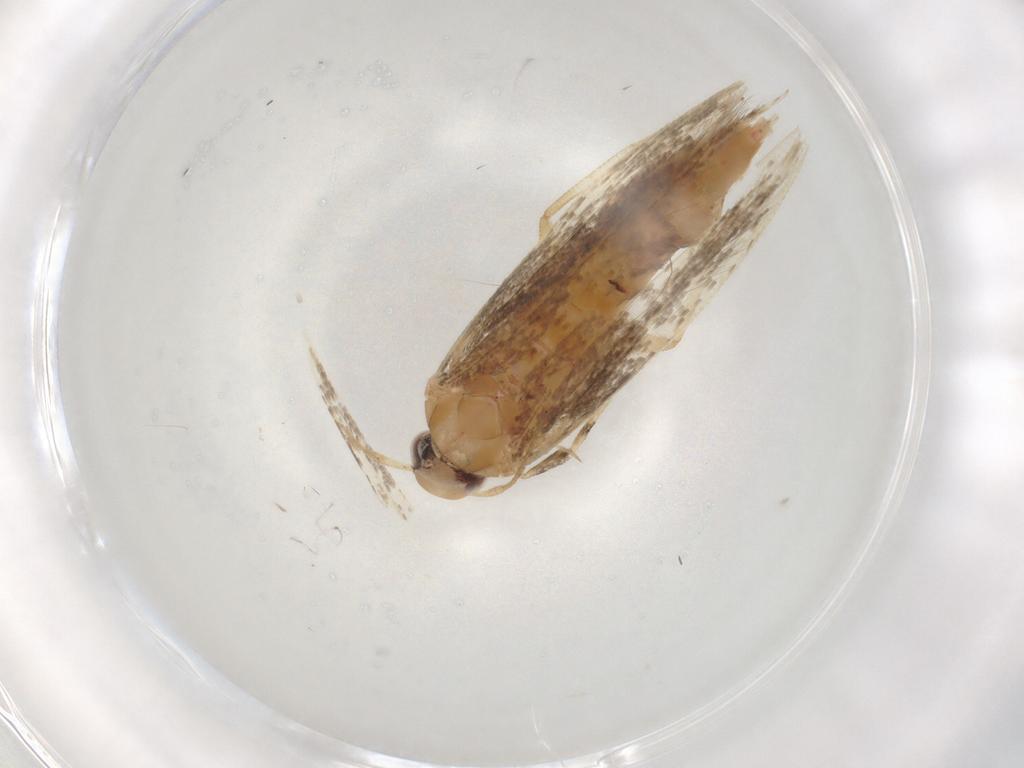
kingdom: Animalia
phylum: Arthropoda
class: Insecta
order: Lepidoptera
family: Cosmopterigidae
